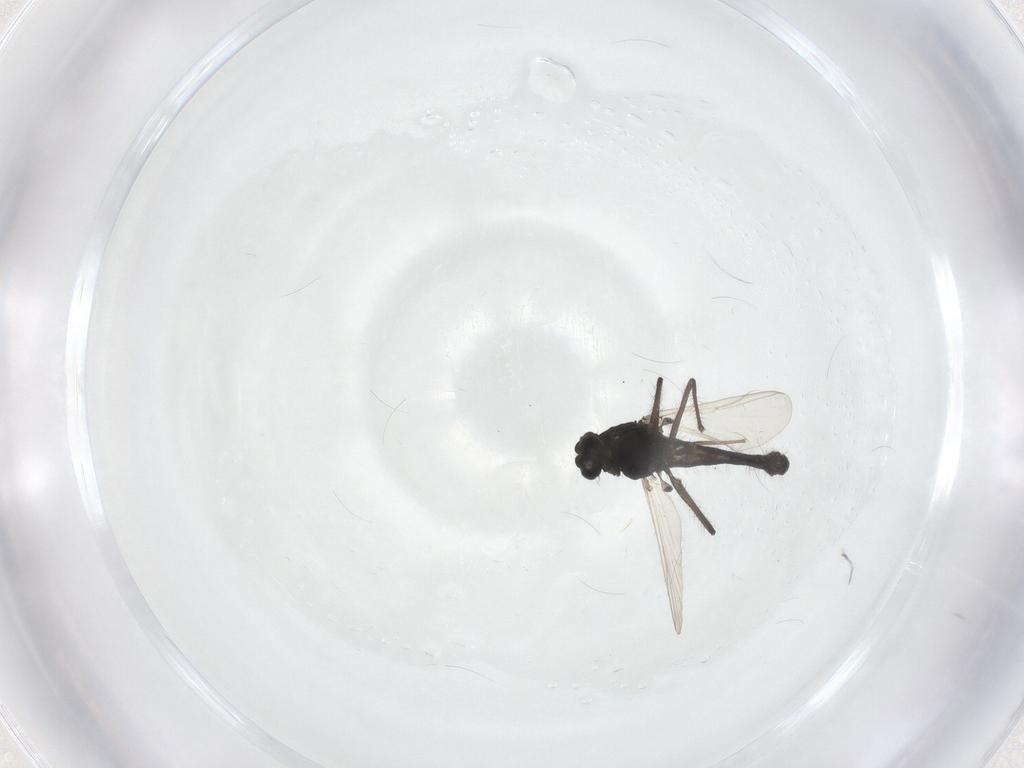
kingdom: Animalia
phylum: Arthropoda
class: Insecta
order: Diptera
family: Chironomidae
